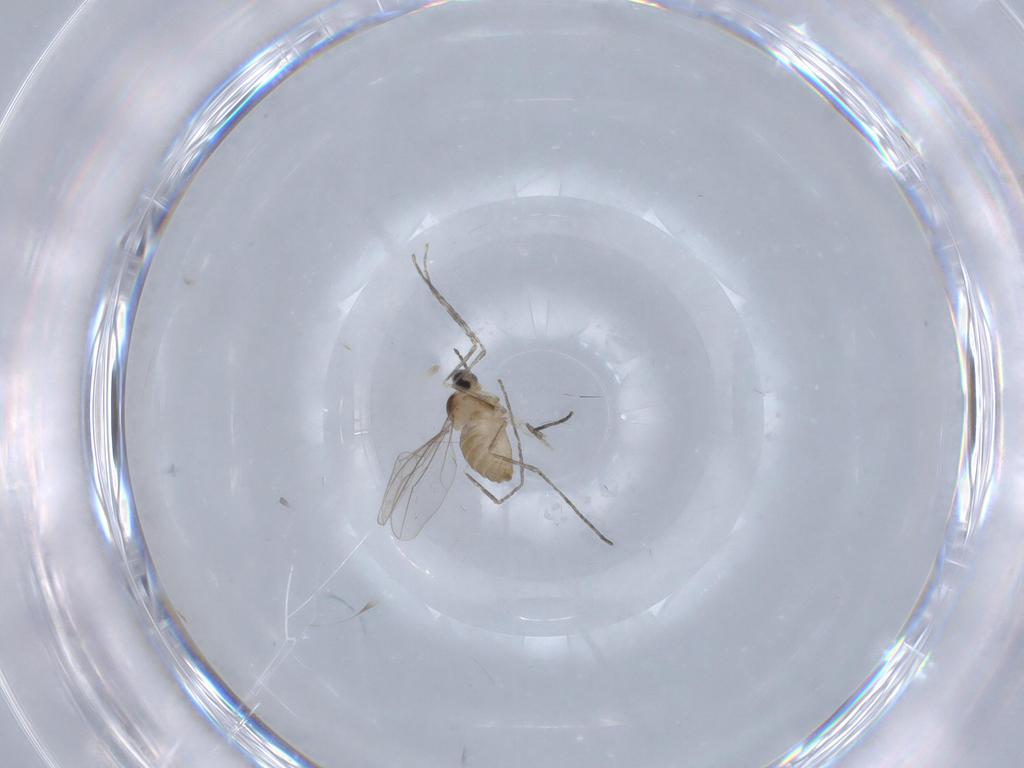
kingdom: Animalia
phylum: Arthropoda
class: Insecta
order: Diptera
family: Cecidomyiidae
